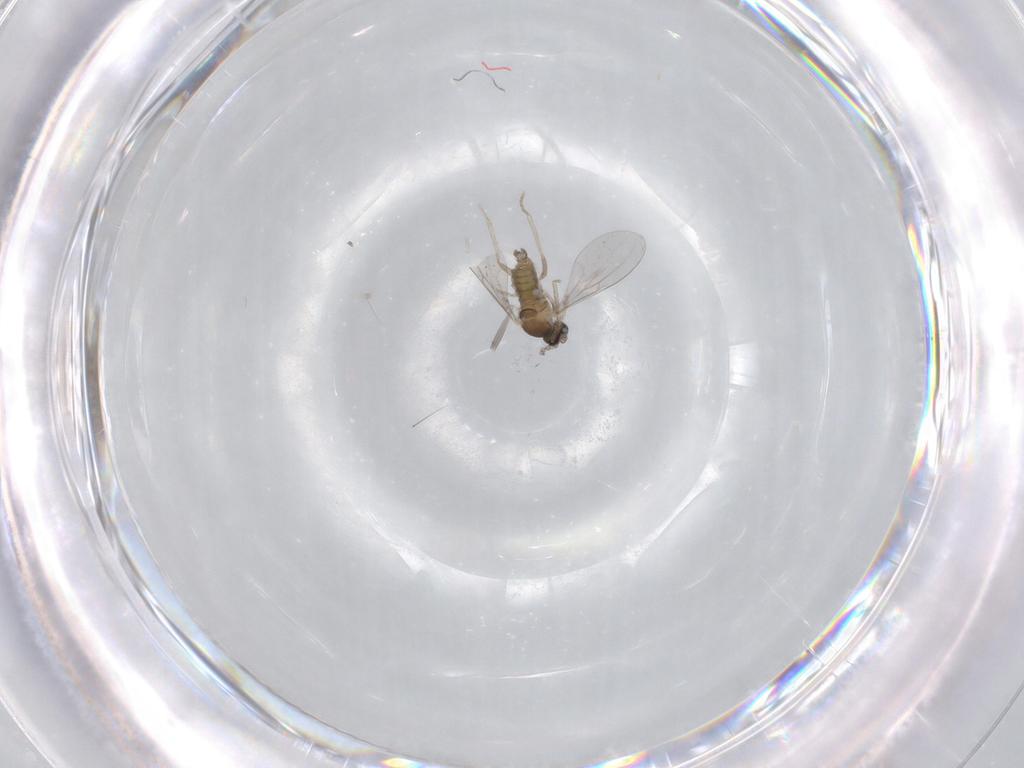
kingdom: Animalia
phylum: Arthropoda
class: Insecta
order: Diptera
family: Cecidomyiidae
